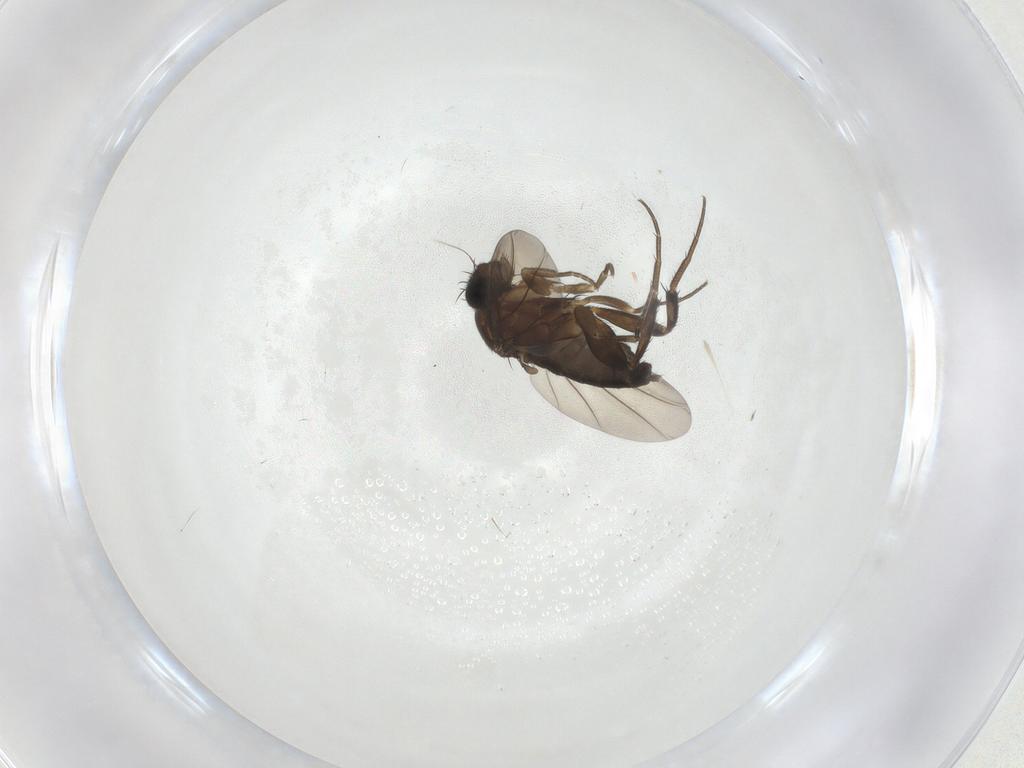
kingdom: Animalia
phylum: Arthropoda
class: Insecta
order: Diptera
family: Phoridae
